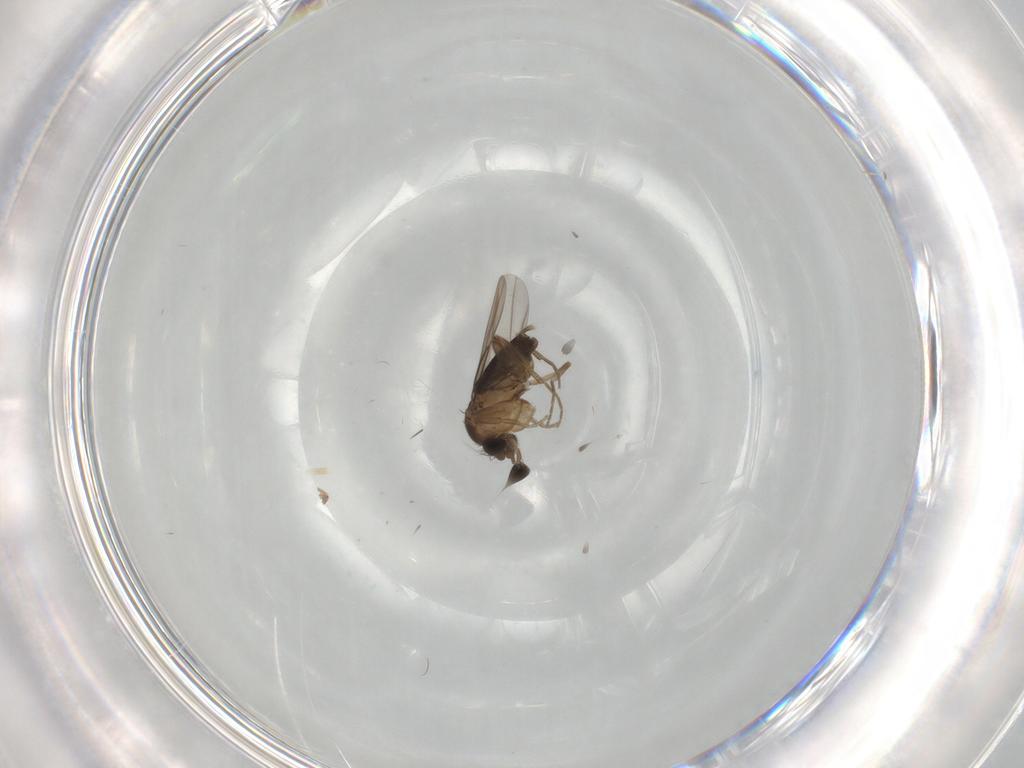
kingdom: Animalia
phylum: Arthropoda
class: Insecta
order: Diptera
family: Phoridae
